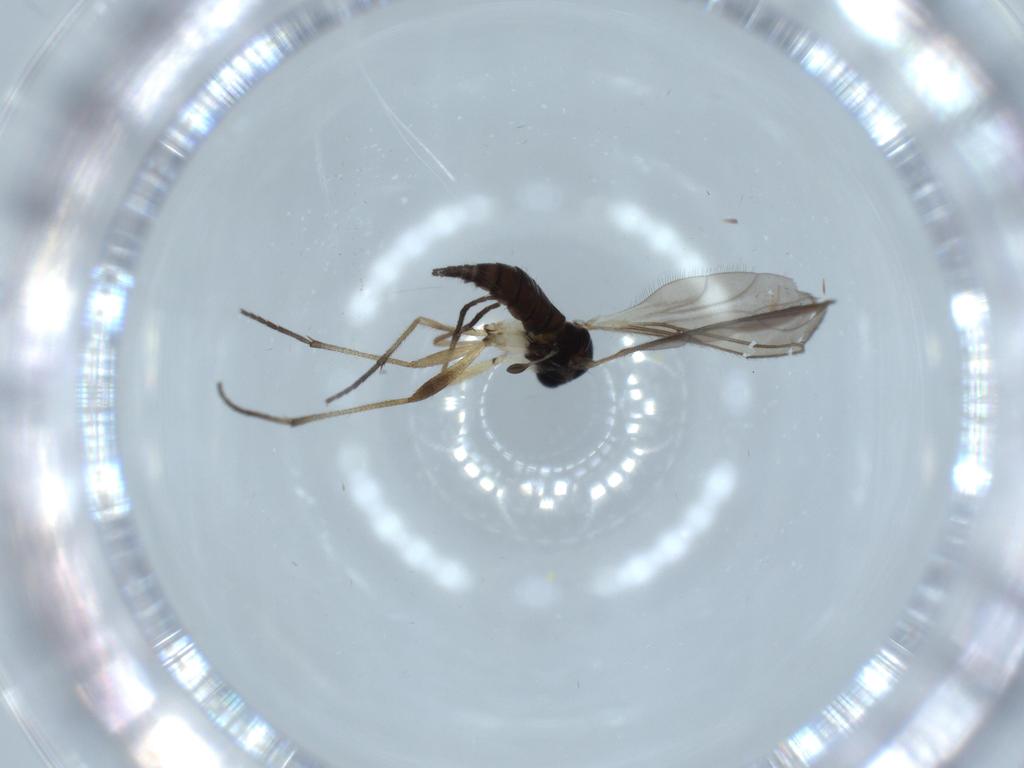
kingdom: Animalia
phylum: Arthropoda
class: Insecta
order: Diptera
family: Sciaridae
